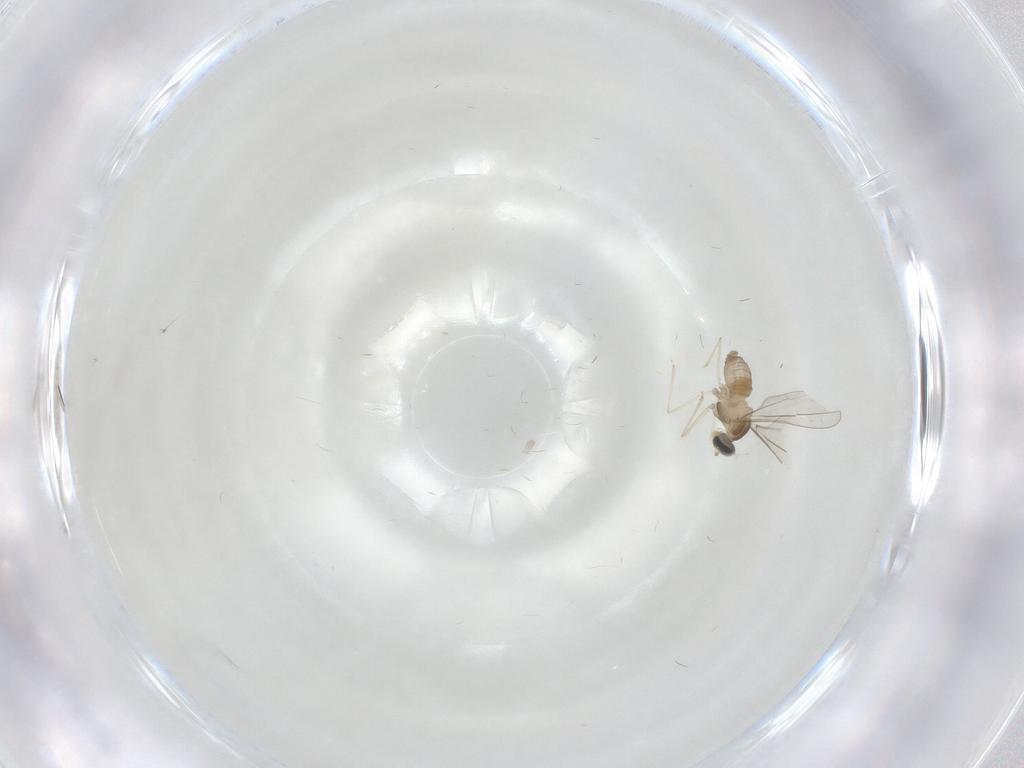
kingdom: Animalia
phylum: Arthropoda
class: Insecta
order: Diptera
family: Cecidomyiidae
